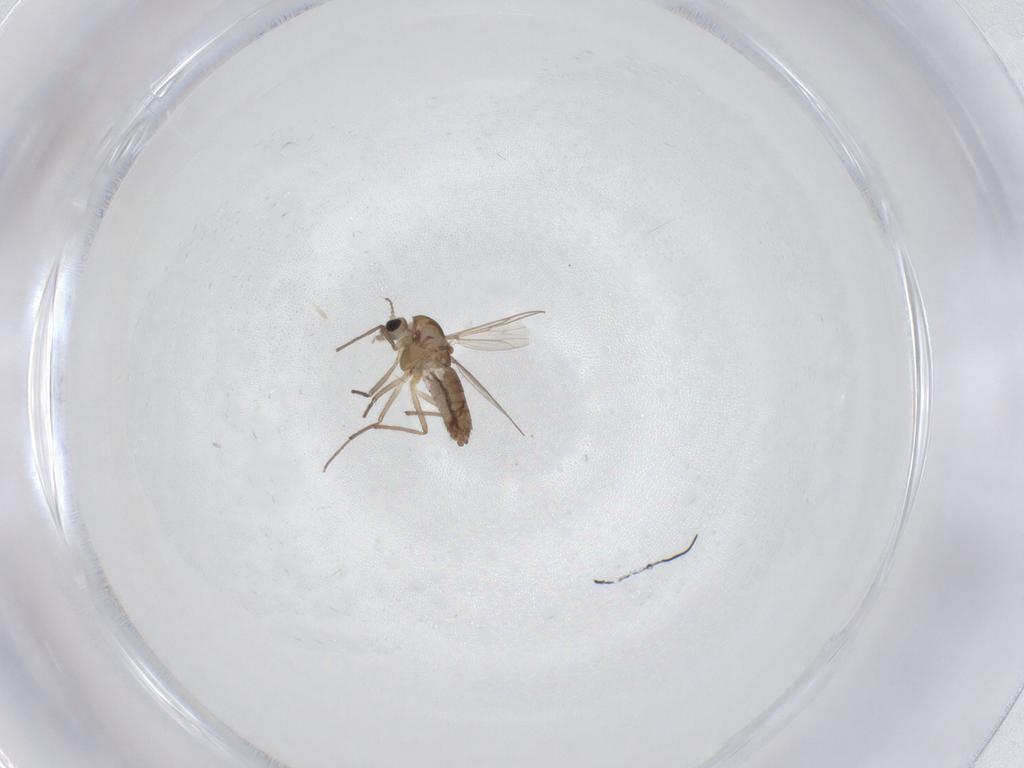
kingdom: Animalia
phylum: Arthropoda
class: Insecta
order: Diptera
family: Chironomidae
